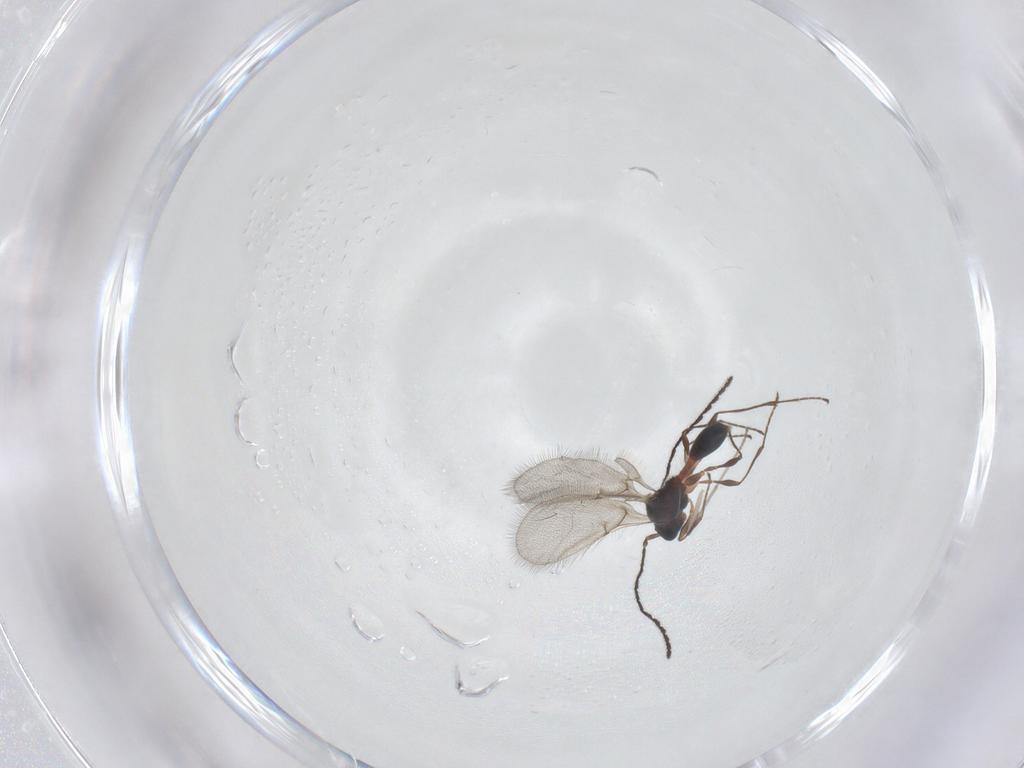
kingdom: Animalia
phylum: Arthropoda
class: Insecta
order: Hymenoptera
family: Diapriidae
